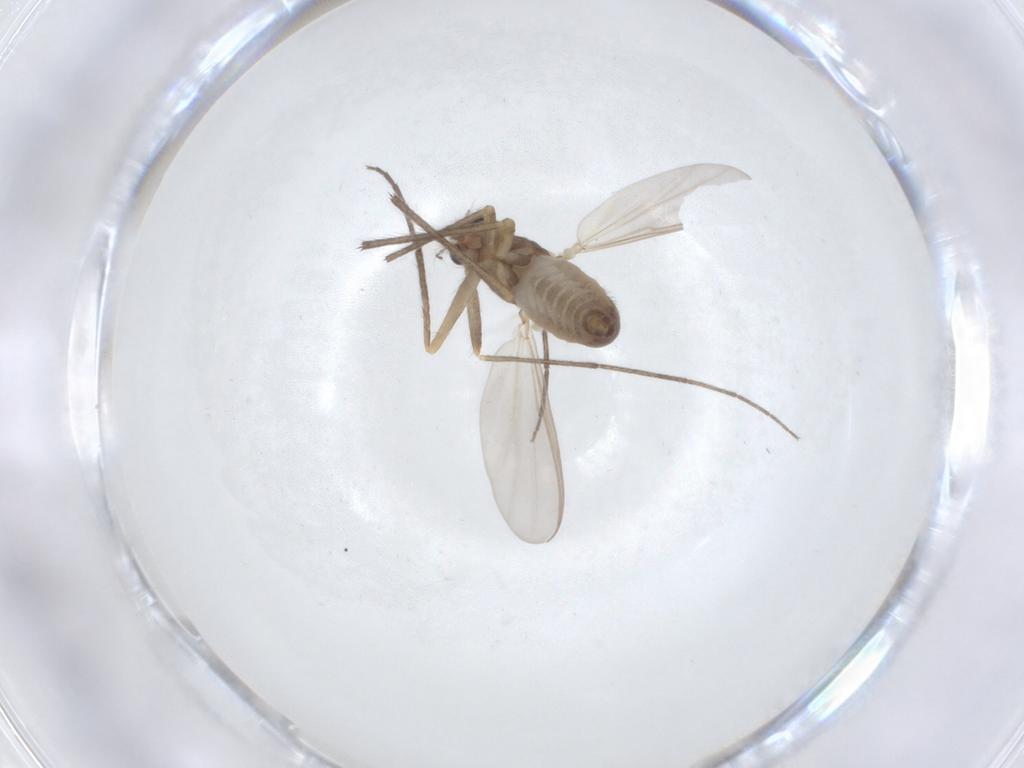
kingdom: Animalia
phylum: Arthropoda
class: Insecta
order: Diptera
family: Chironomidae
